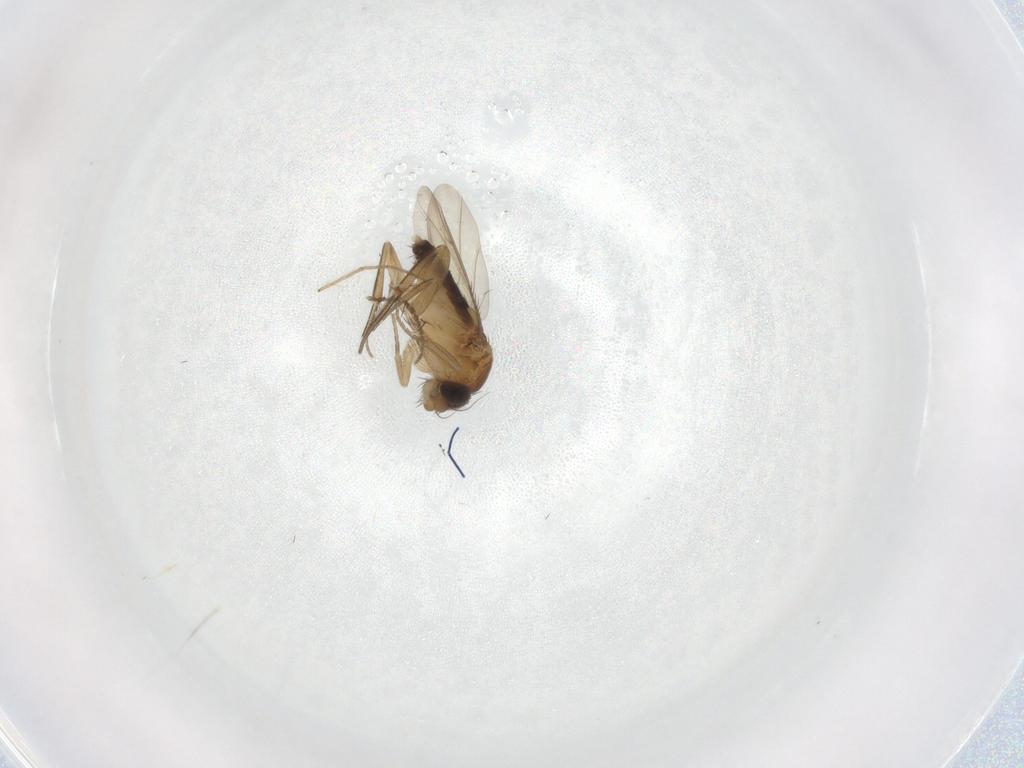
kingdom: Animalia
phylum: Arthropoda
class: Insecta
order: Diptera
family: Phoridae
